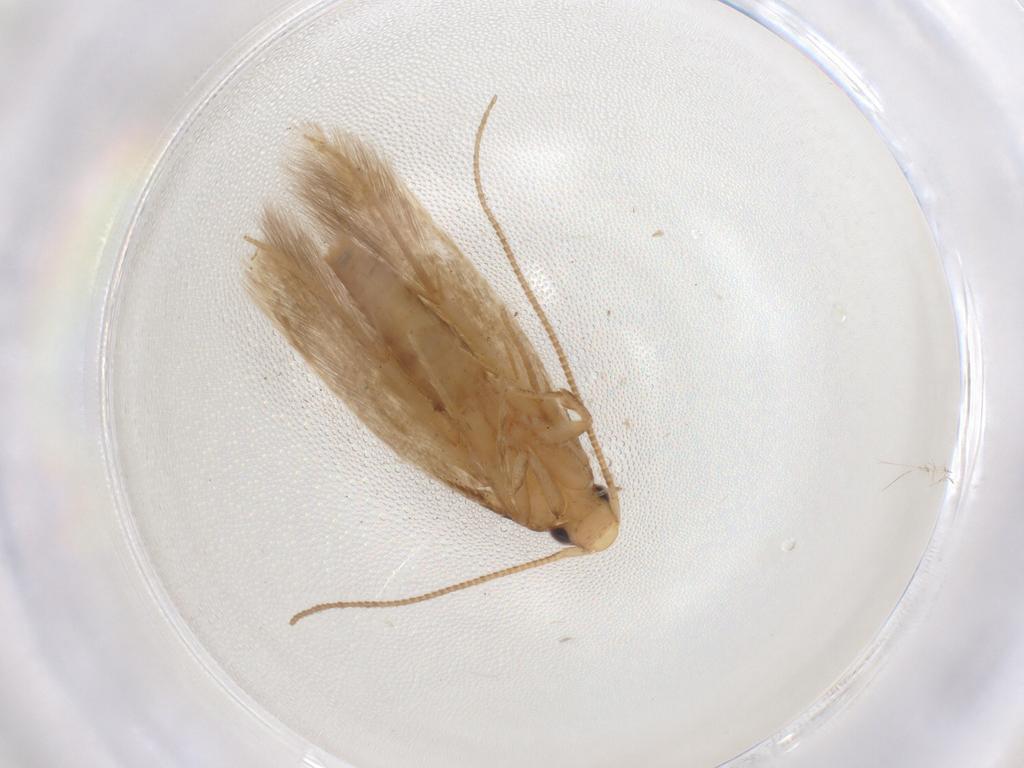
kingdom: Animalia
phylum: Arthropoda
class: Insecta
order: Lepidoptera
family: Tineidae
